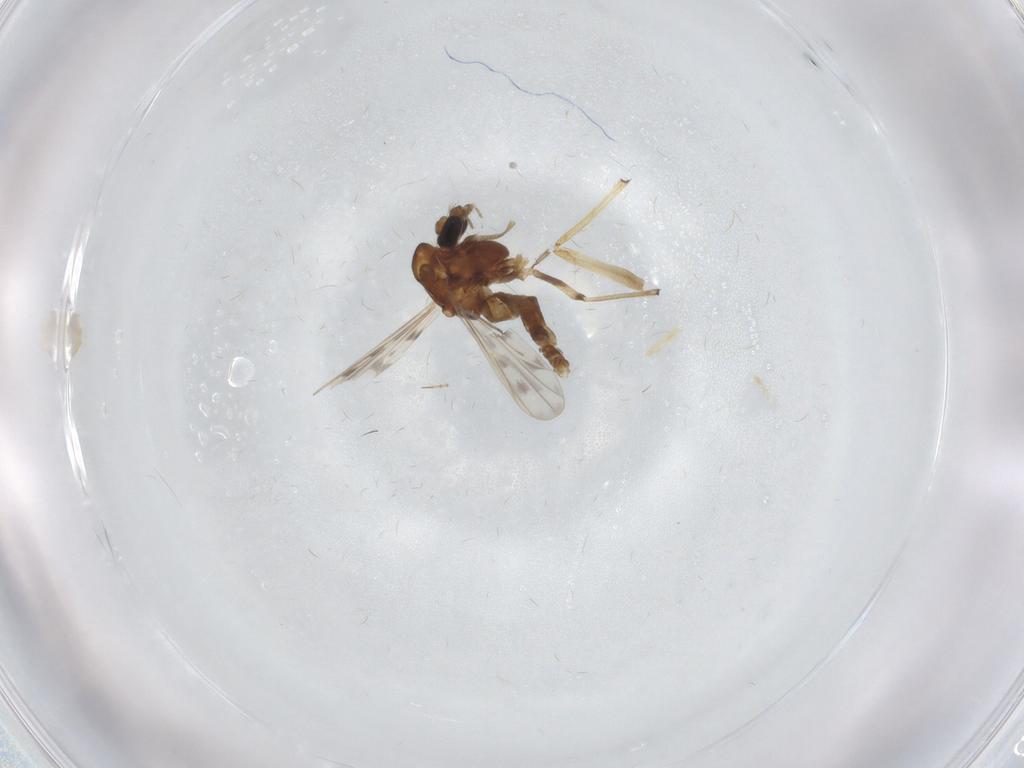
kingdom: Animalia
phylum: Arthropoda
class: Insecta
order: Diptera
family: Chironomidae
